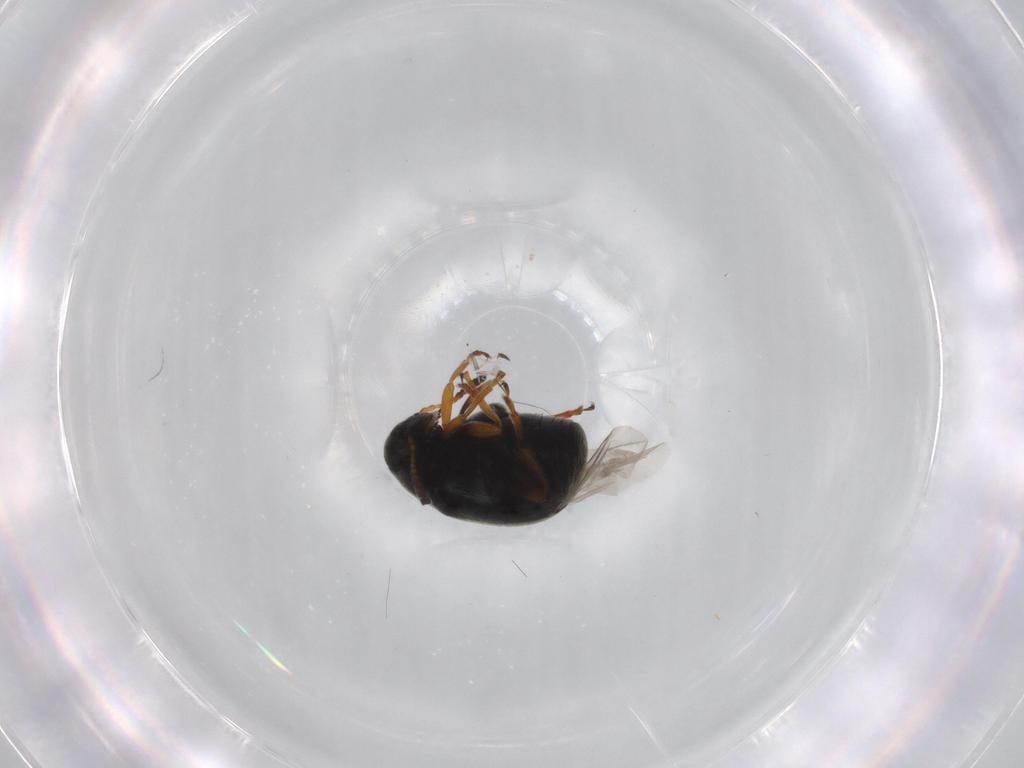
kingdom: Animalia
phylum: Arthropoda
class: Insecta
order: Coleoptera
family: Chrysomelidae
